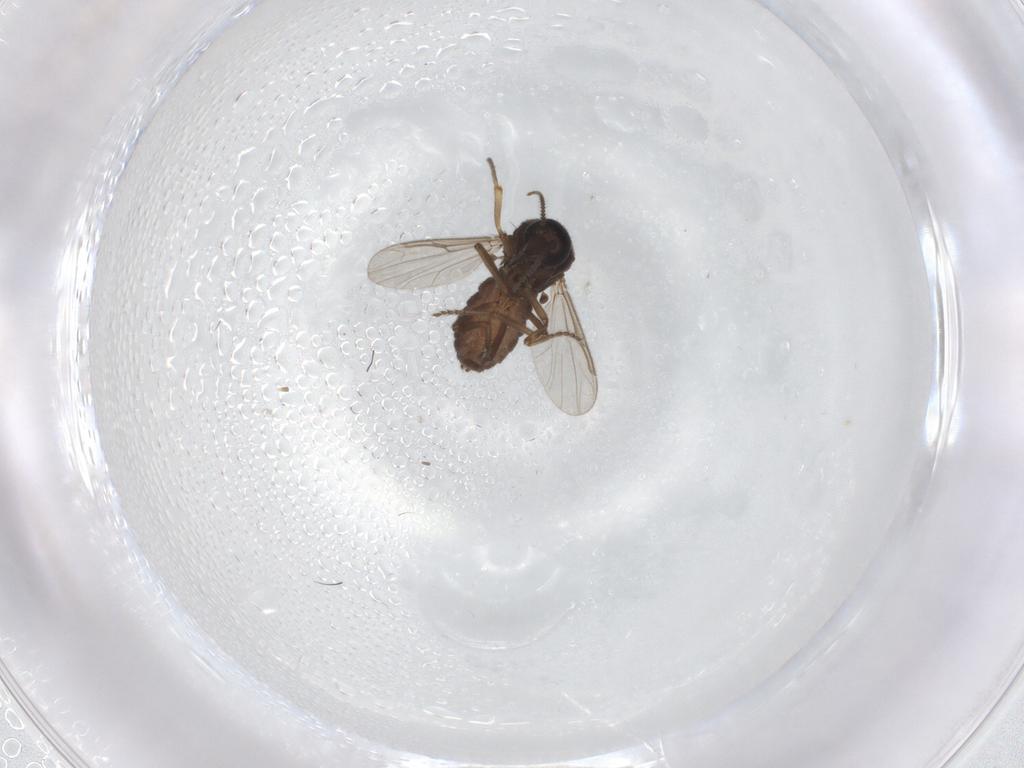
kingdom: Animalia
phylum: Arthropoda
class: Insecta
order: Diptera
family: Ceratopogonidae
